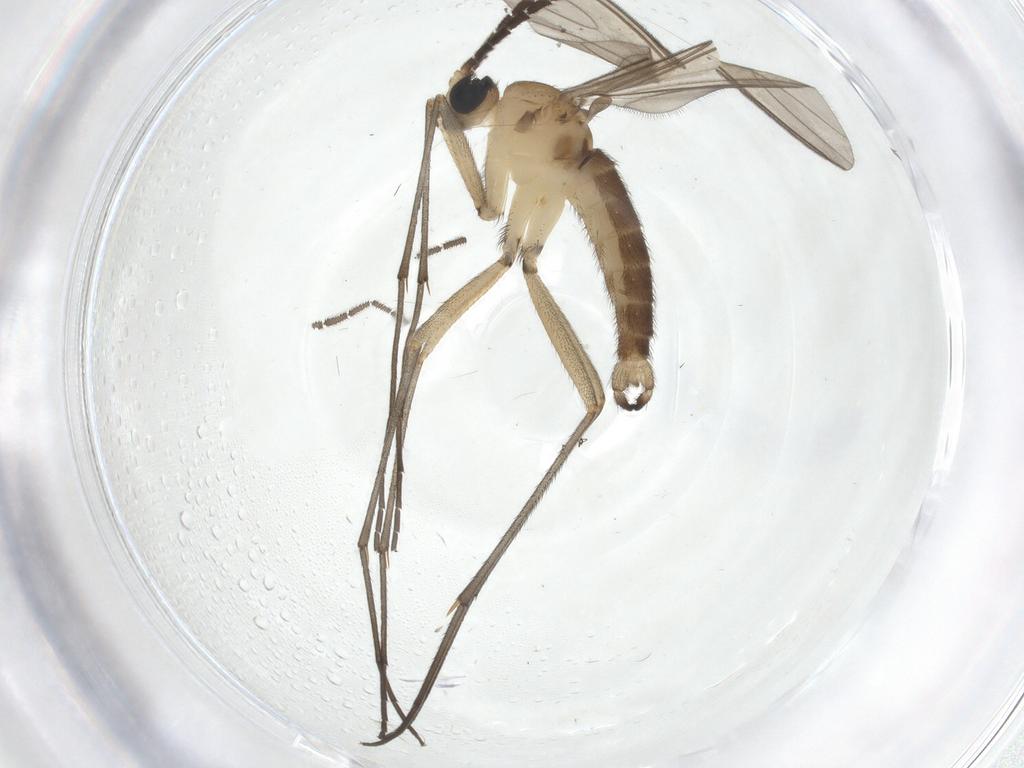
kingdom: Animalia
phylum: Arthropoda
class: Insecta
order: Diptera
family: Sciaridae
